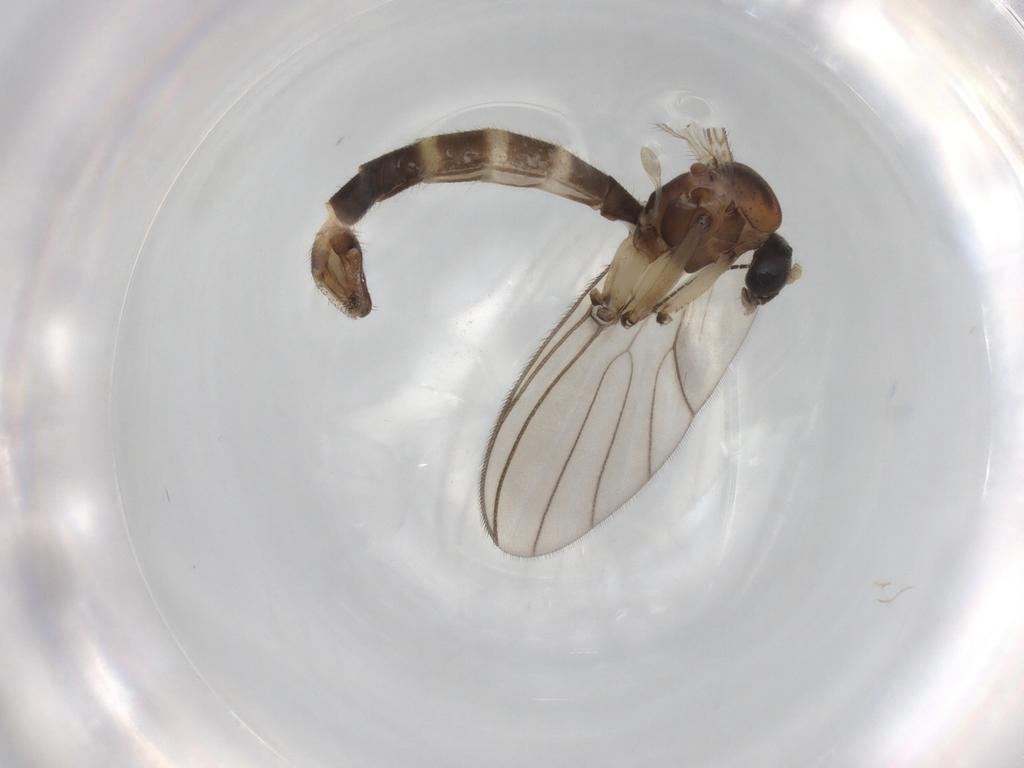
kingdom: Animalia
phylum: Arthropoda
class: Insecta
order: Diptera
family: Mycetophilidae
